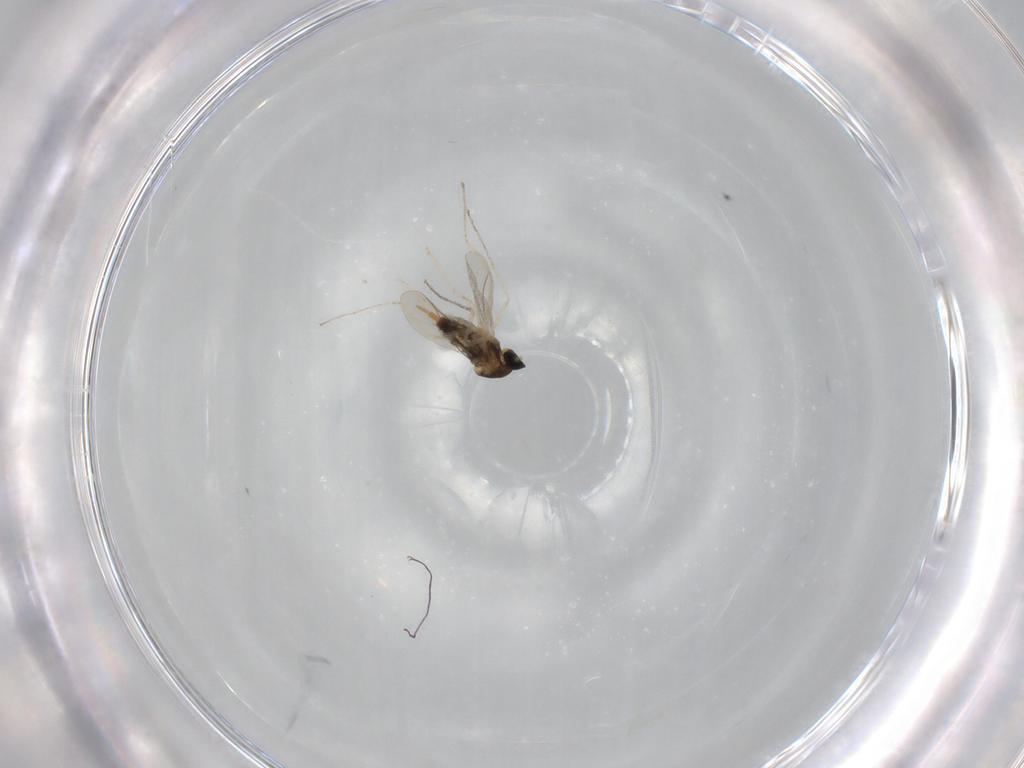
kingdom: Animalia
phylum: Arthropoda
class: Insecta
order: Diptera
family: Cecidomyiidae
